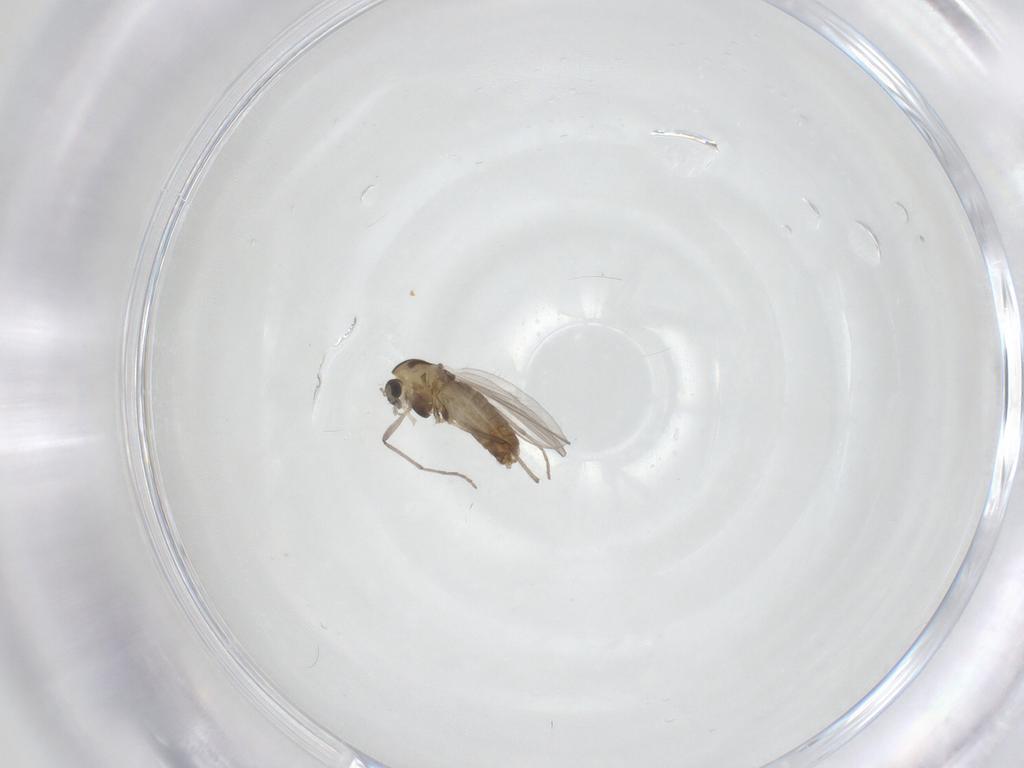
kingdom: Animalia
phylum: Arthropoda
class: Insecta
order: Diptera
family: Chironomidae
